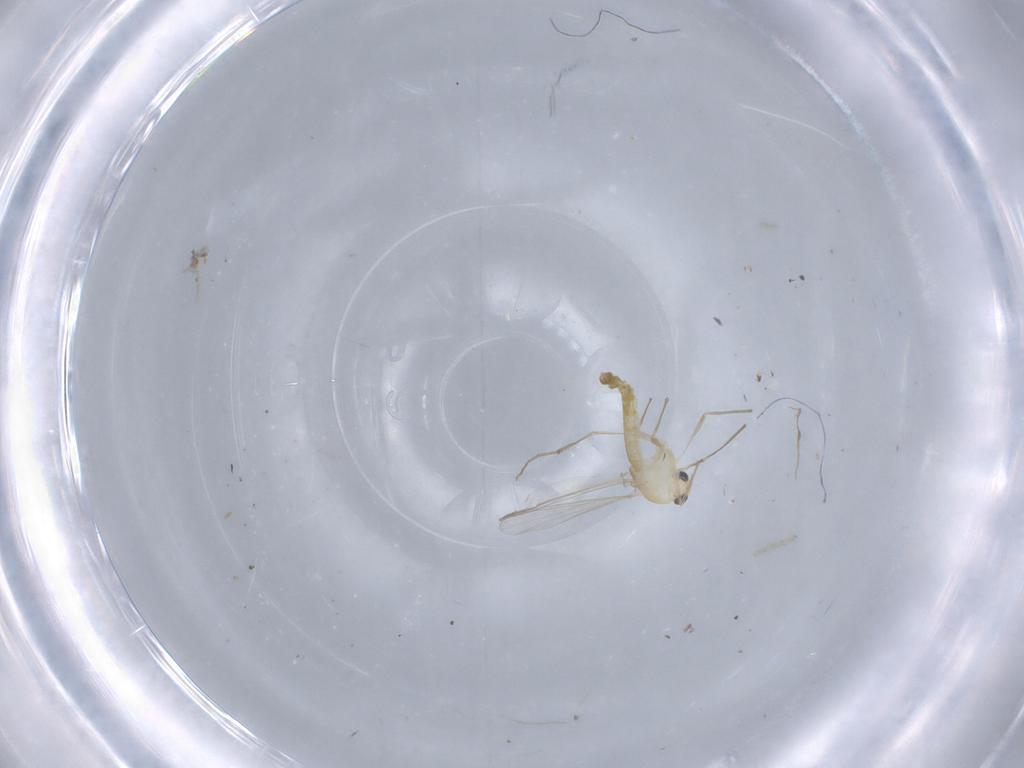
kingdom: Animalia
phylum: Arthropoda
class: Insecta
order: Diptera
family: Chironomidae
